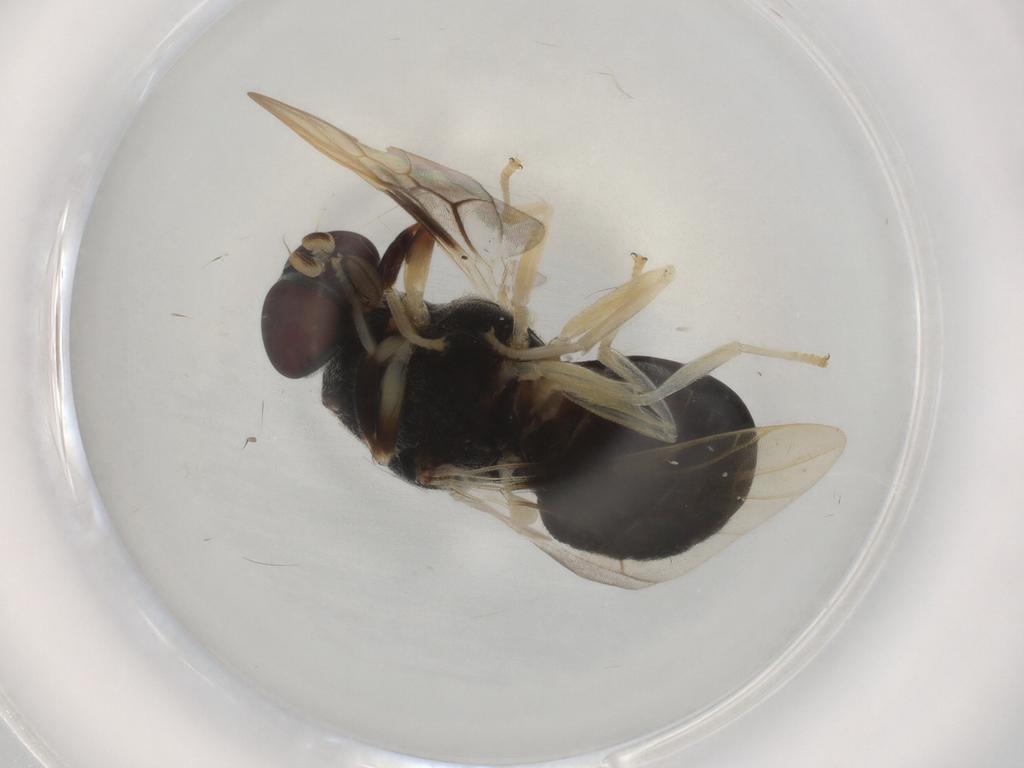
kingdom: Animalia
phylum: Arthropoda
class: Insecta
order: Diptera
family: Stratiomyidae
